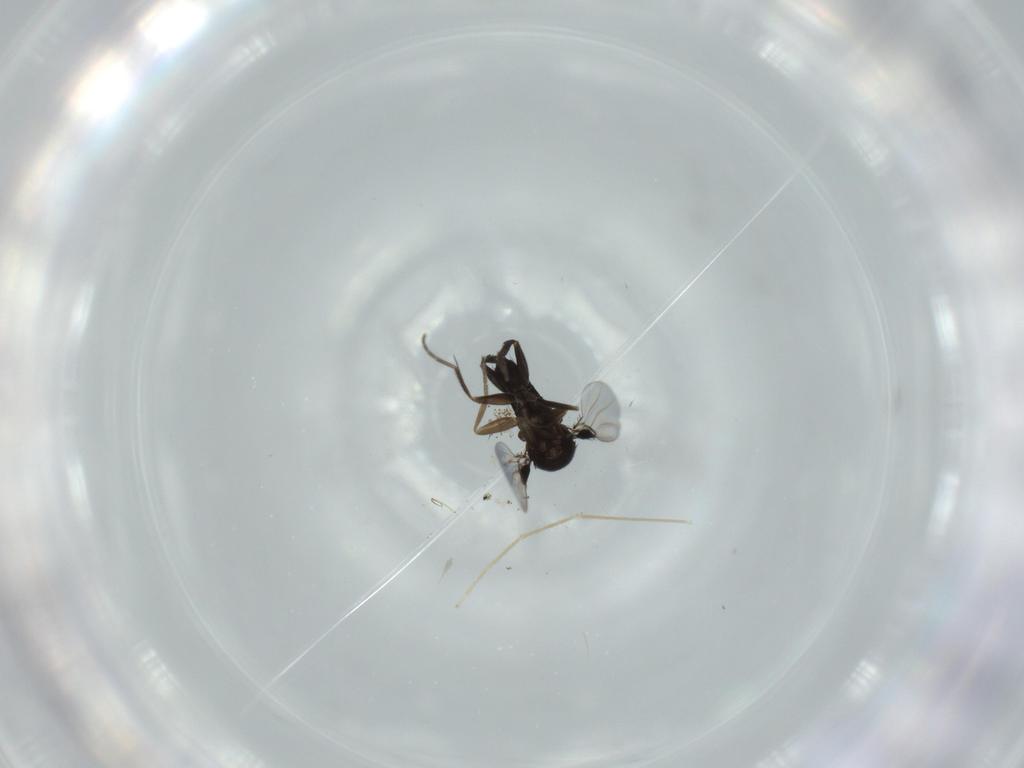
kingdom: Animalia
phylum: Arthropoda
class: Insecta
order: Diptera
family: Phoridae
